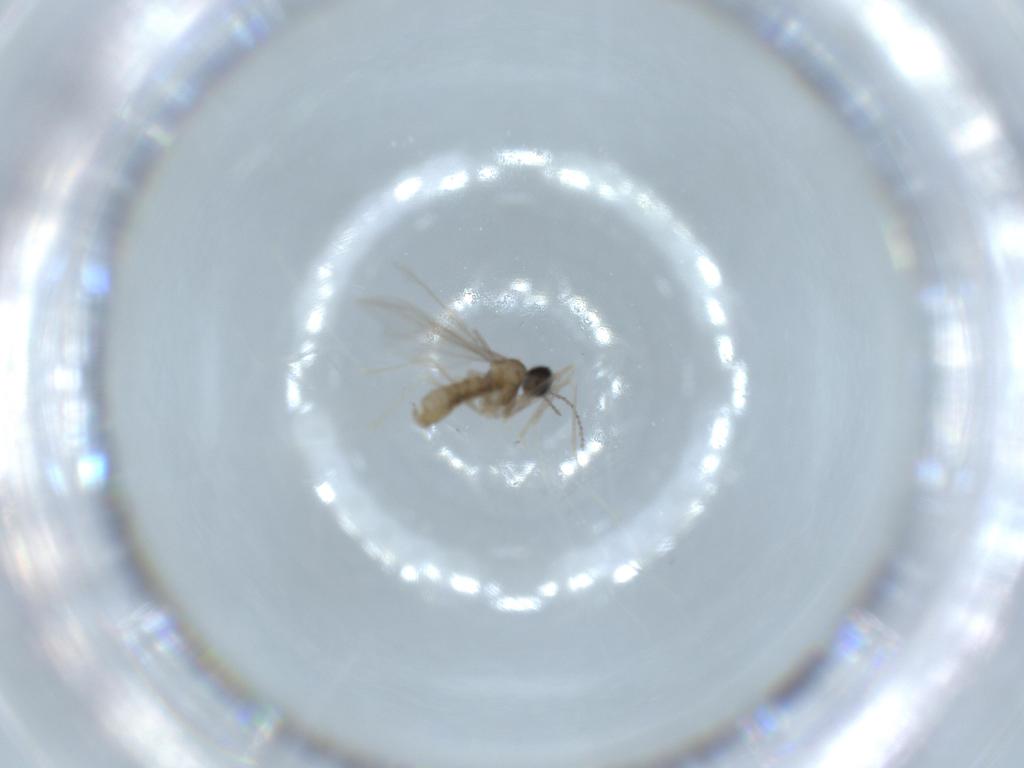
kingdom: Animalia
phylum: Arthropoda
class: Insecta
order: Diptera
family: Cecidomyiidae
